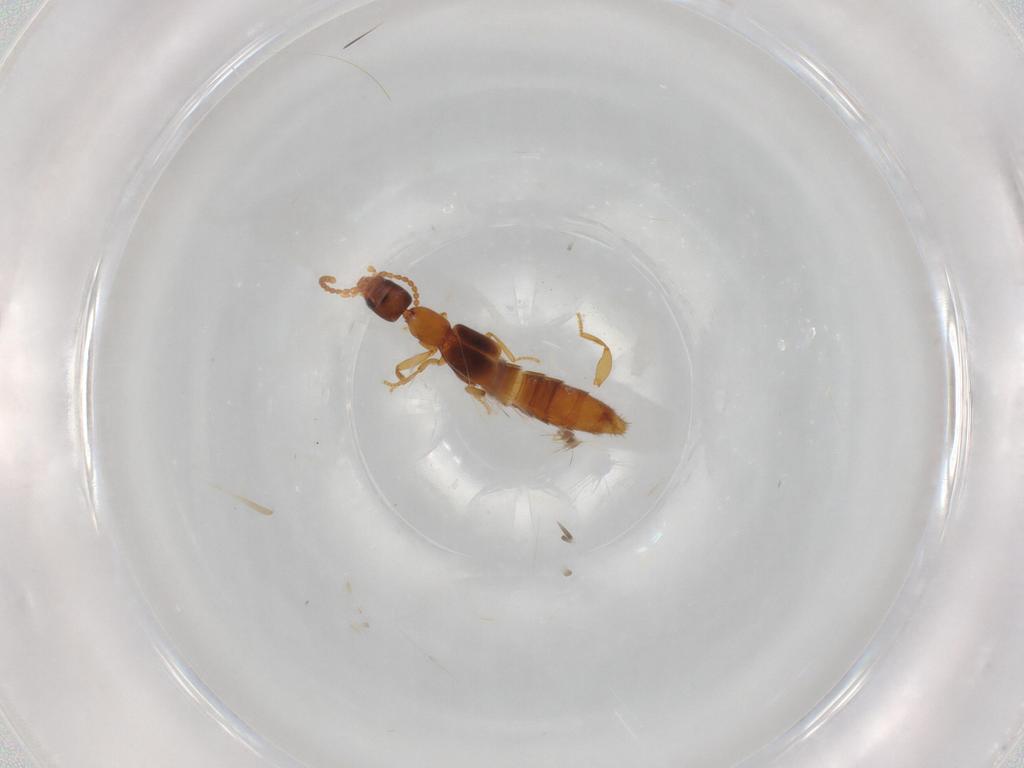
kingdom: Animalia
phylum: Arthropoda
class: Insecta
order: Coleoptera
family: Staphylinidae
